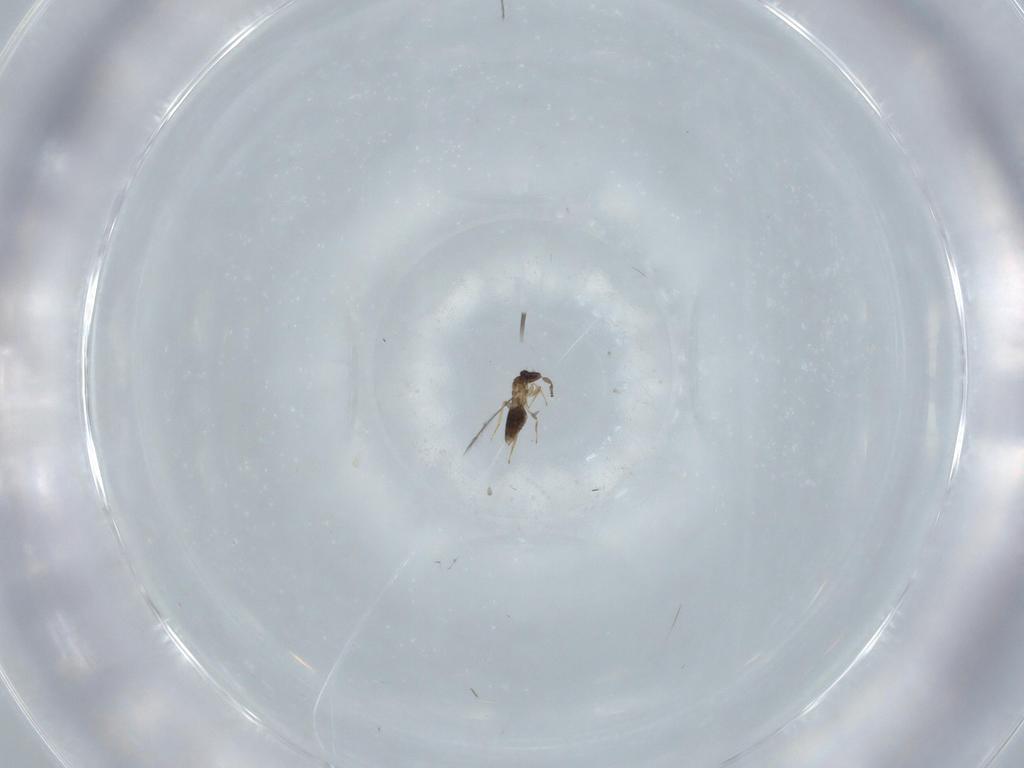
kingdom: Animalia
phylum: Arthropoda
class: Insecta
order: Hymenoptera
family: Mymaridae
